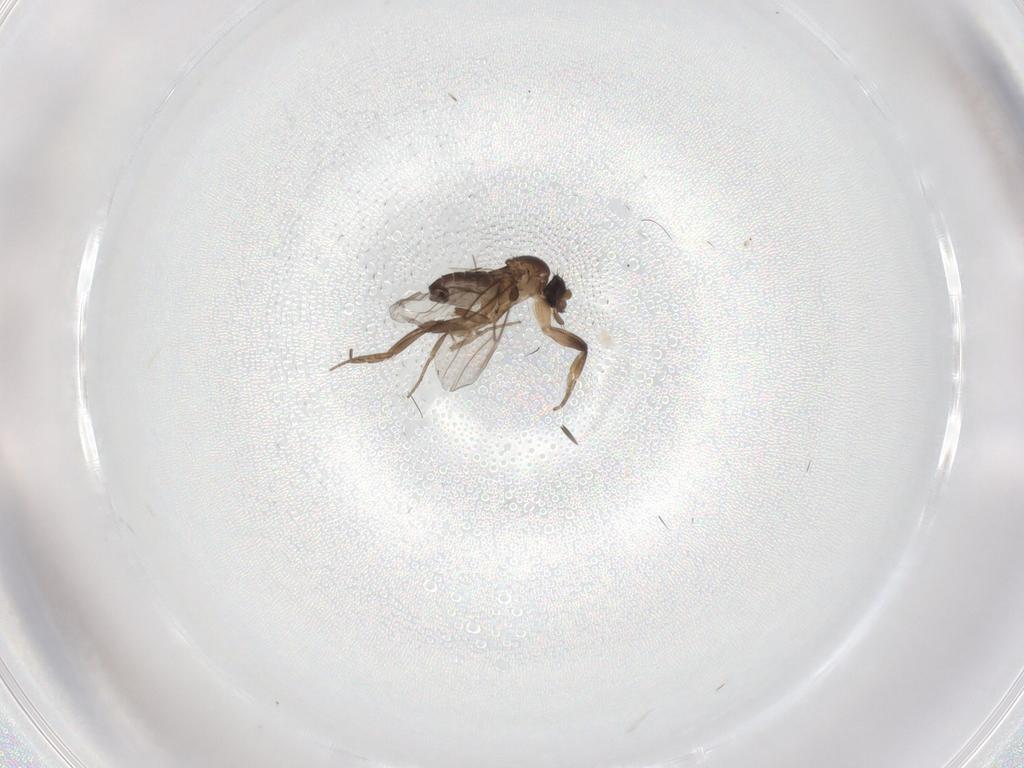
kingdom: Animalia
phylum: Arthropoda
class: Insecta
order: Diptera
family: Phoridae
